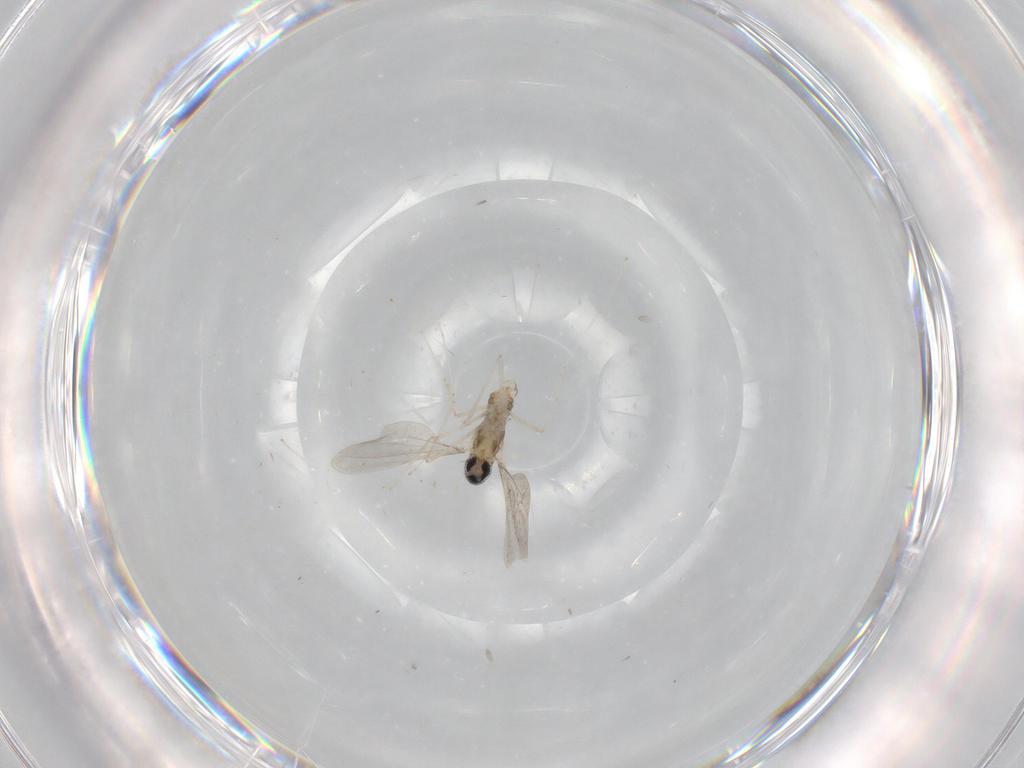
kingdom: Animalia
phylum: Arthropoda
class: Insecta
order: Diptera
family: Cecidomyiidae
